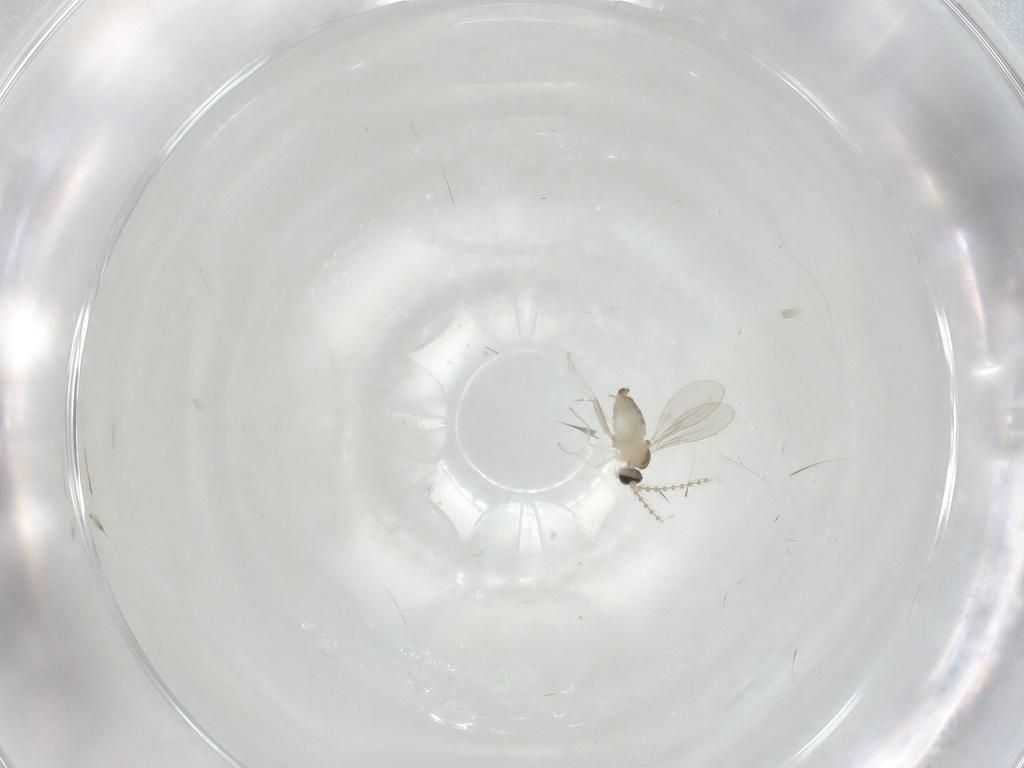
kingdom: Animalia
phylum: Arthropoda
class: Insecta
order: Diptera
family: Cecidomyiidae
